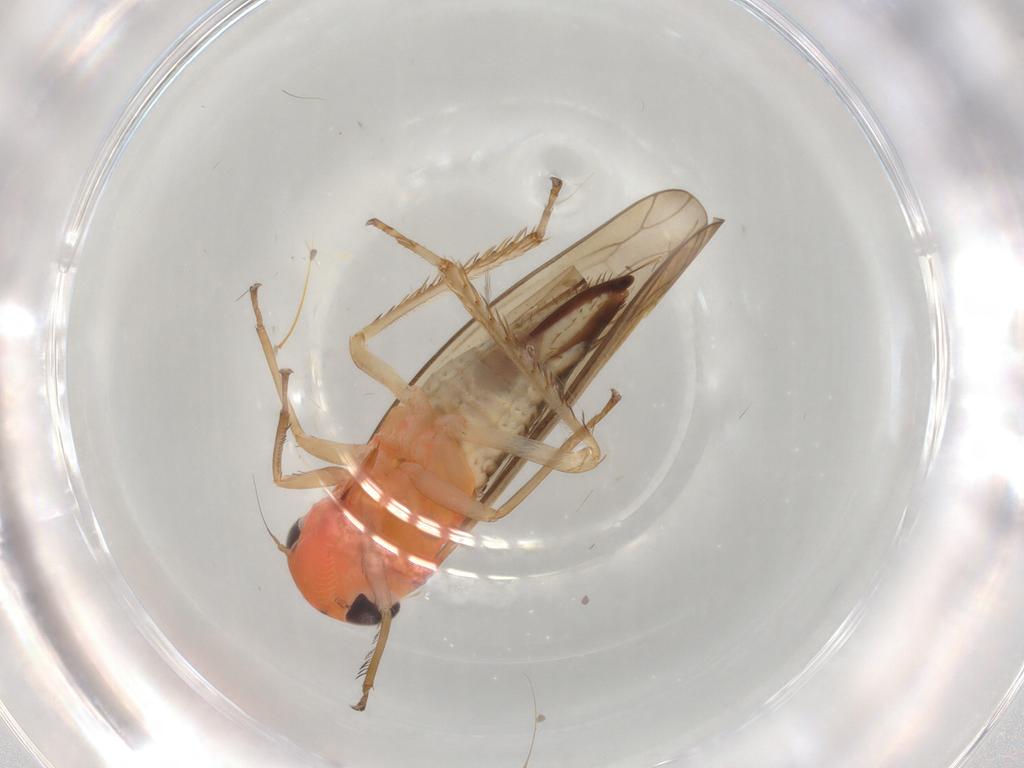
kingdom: Animalia
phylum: Arthropoda
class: Insecta
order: Hemiptera
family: Cicadellidae
